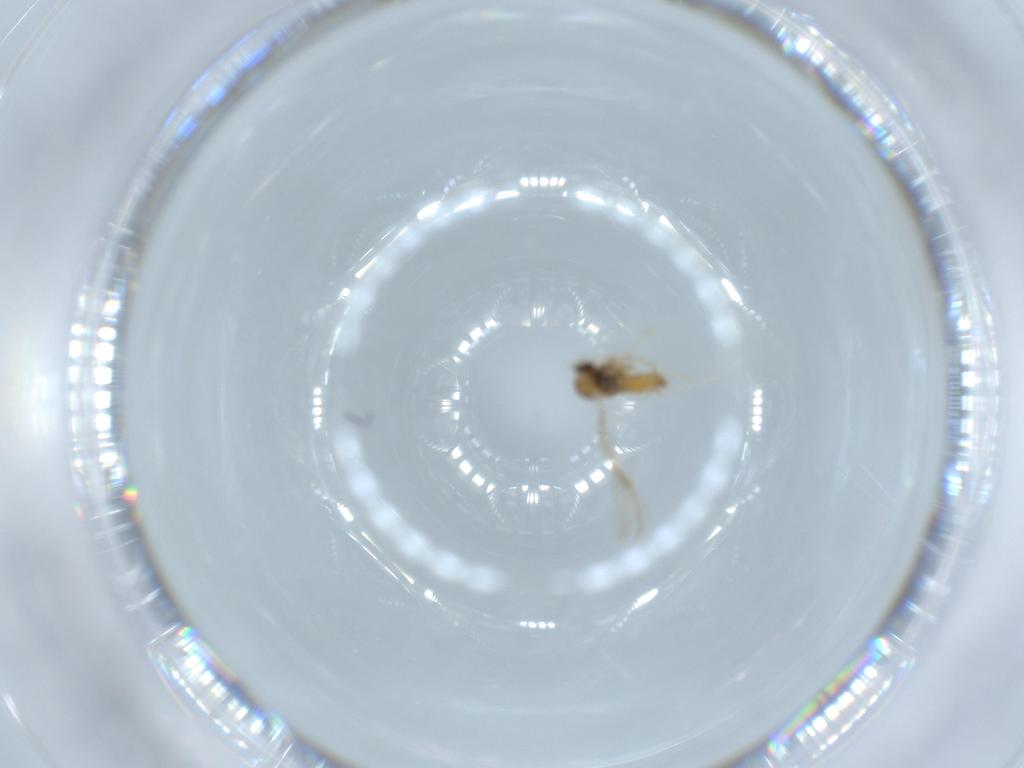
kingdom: Animalia
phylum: Arthropoda
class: Insecta
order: Diptera
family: Cecidomyiidae
